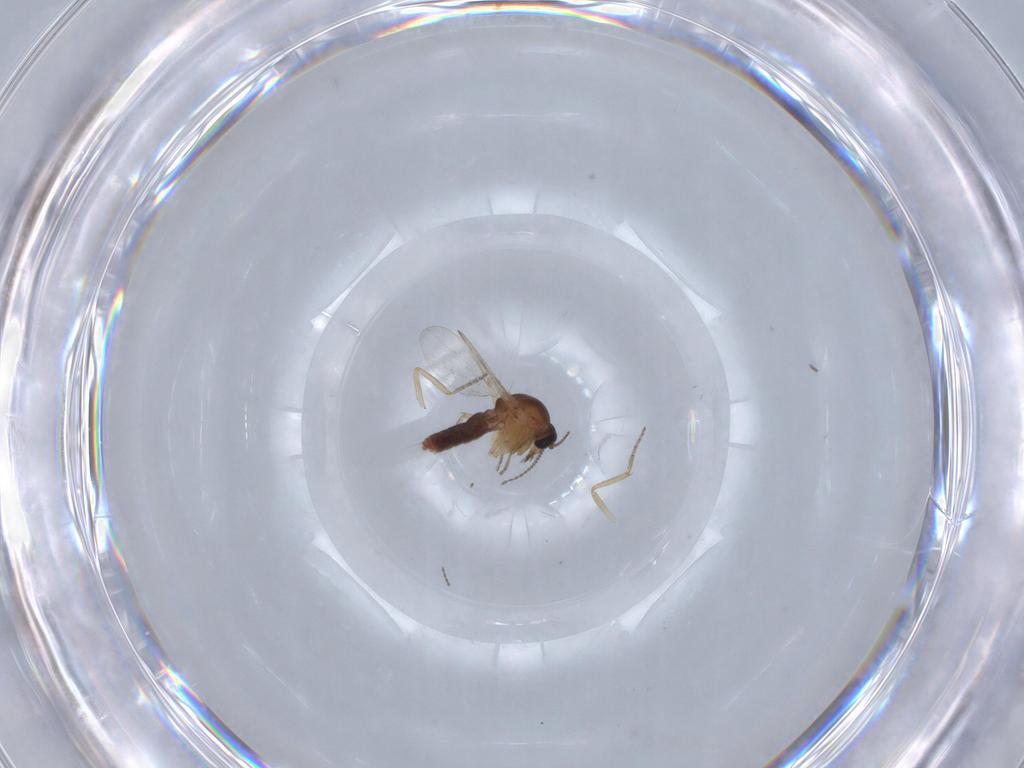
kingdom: Animalia
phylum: Arthropoda
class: Insecta
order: Diptera
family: Ceratopogonidae
